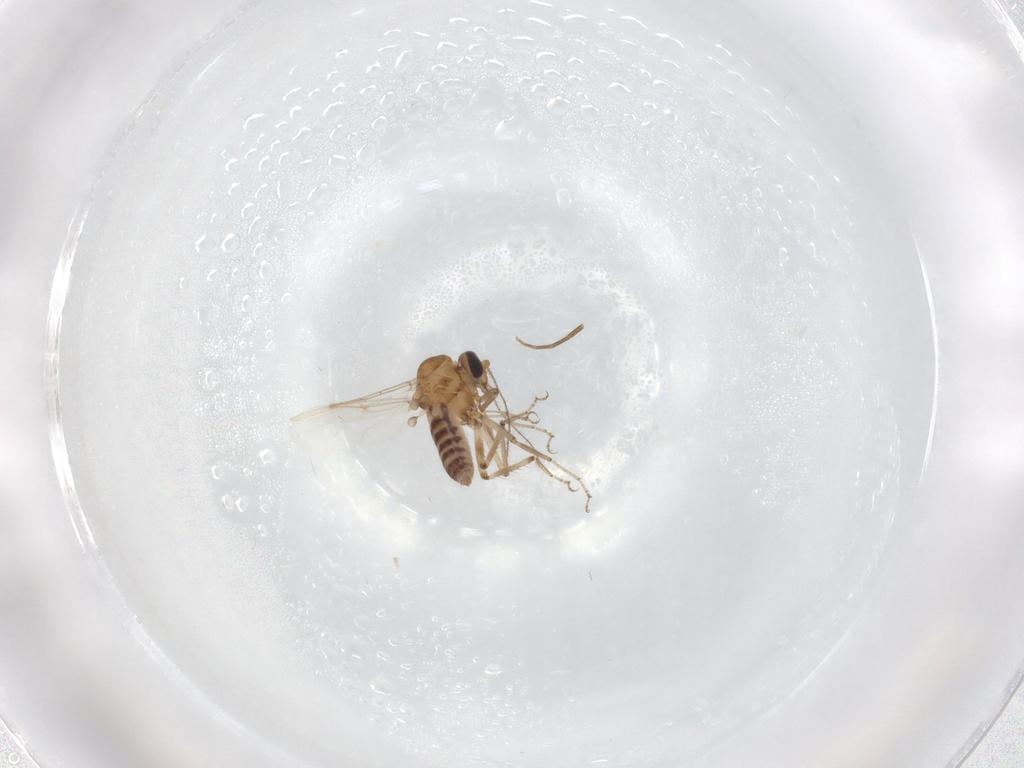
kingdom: Animalia
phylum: Arthropoda
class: Insecta
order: Diptera
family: Ceratopogonidae
